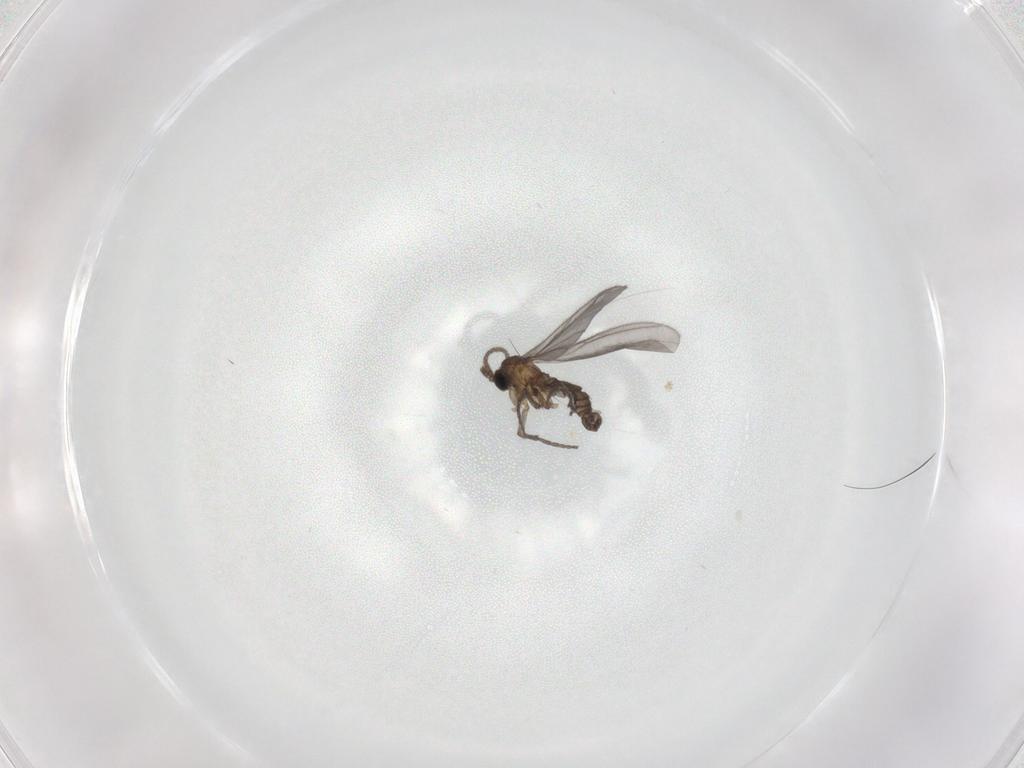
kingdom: Animalia
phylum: Arthropoda
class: Insecta
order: Diptera
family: Sciaridae
